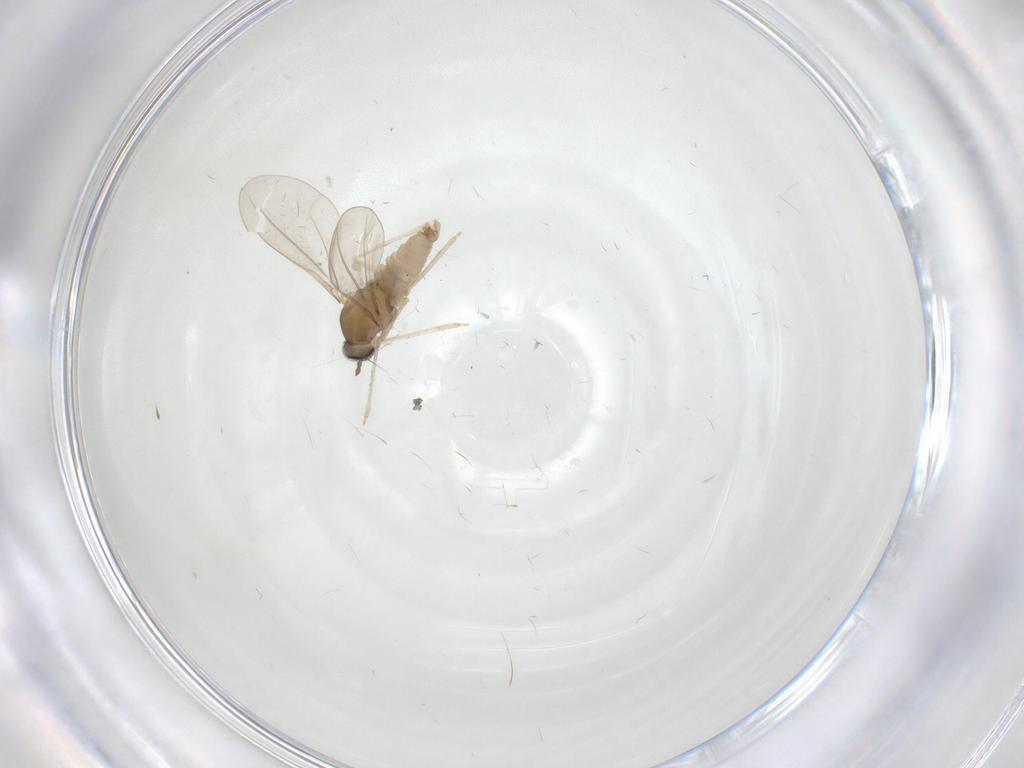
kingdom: Animalia
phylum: Arthropoda
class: Insecta
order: Diptera
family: Cecidomyiidae
